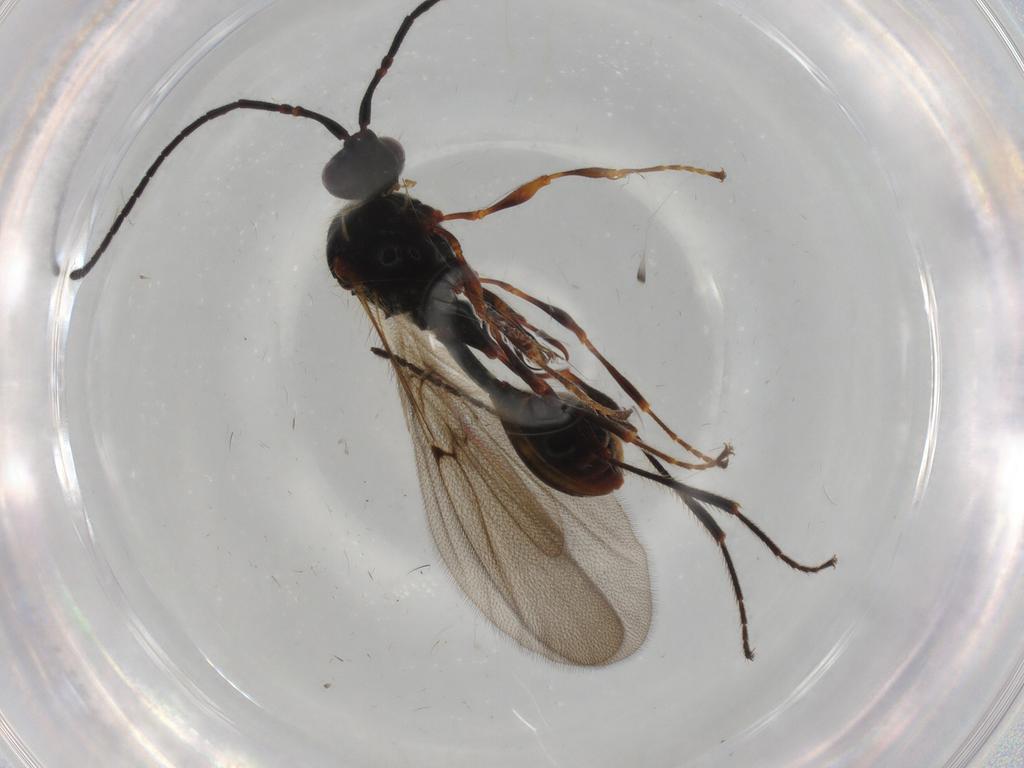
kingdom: Animalia
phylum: Arthropoda
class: Insecta
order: Hymenoptera
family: Diapriidae
